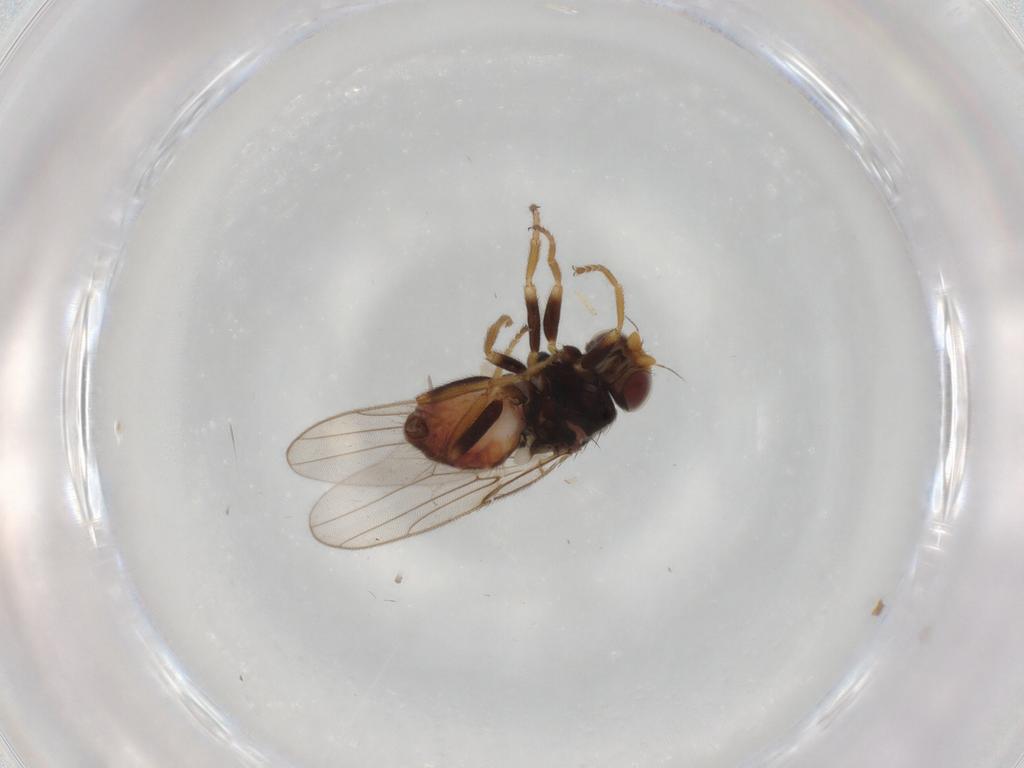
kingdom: Animalia
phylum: Arthropoda
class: Insecta
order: Diptera
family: Chloropidae
